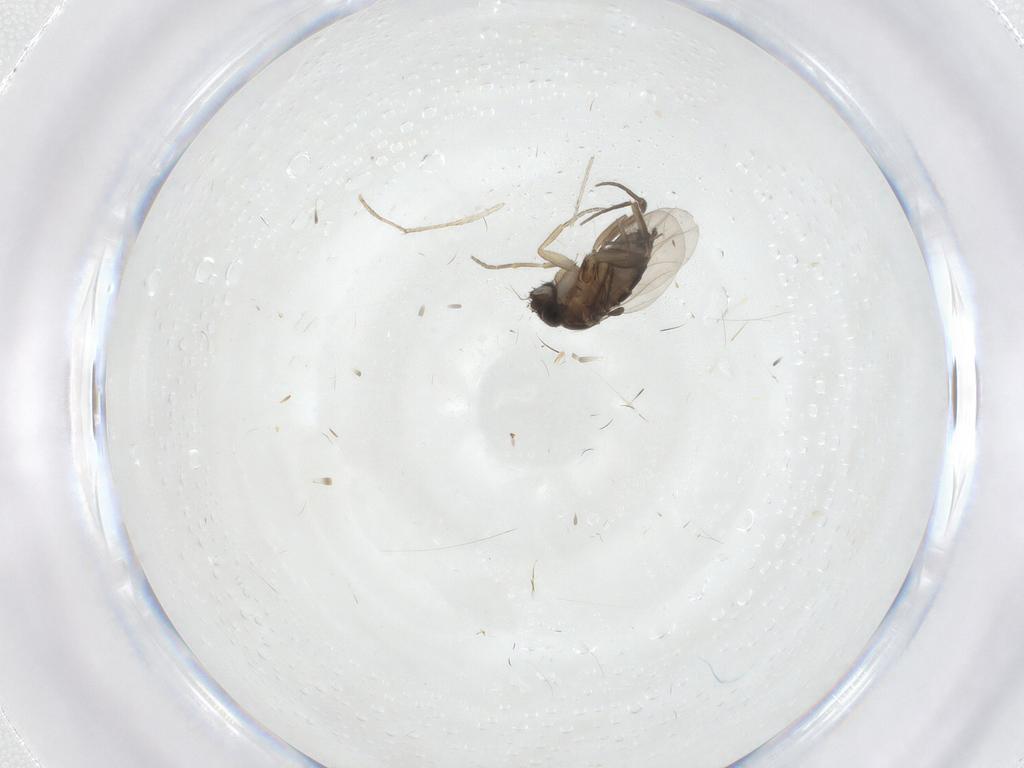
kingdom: Animalia
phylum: Arthropoda
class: Insecta
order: Diptera
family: Phoridae
